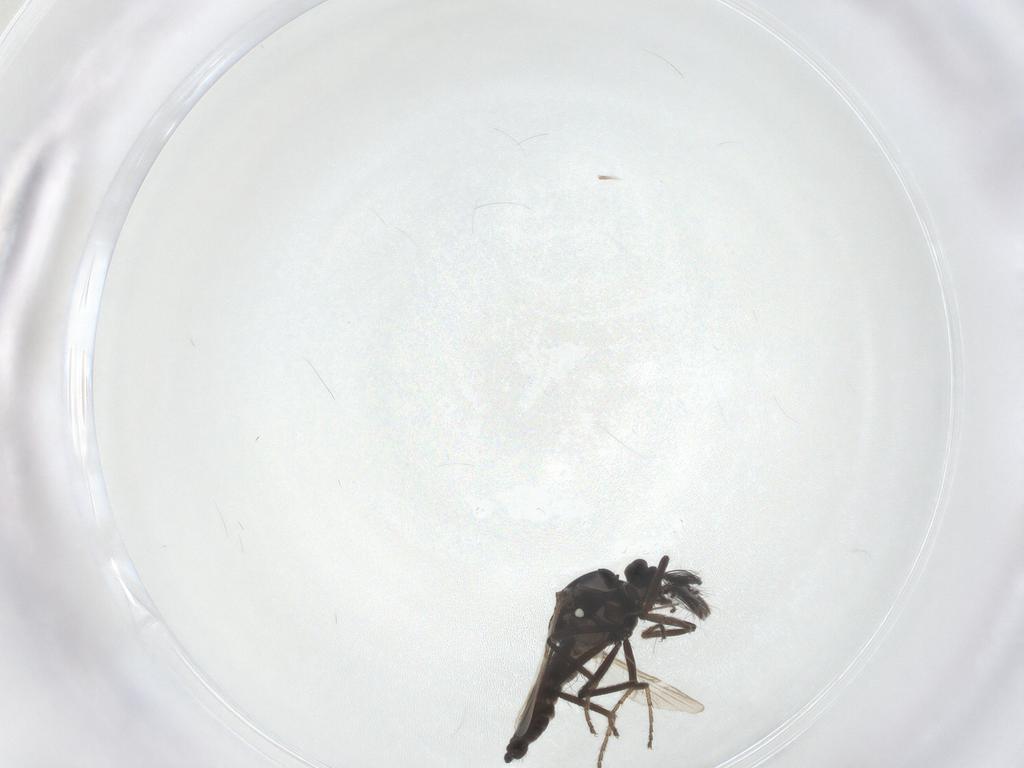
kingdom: Animalia
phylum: Arthropoda
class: Insecta
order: Diptera
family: Ceratopogonidae
